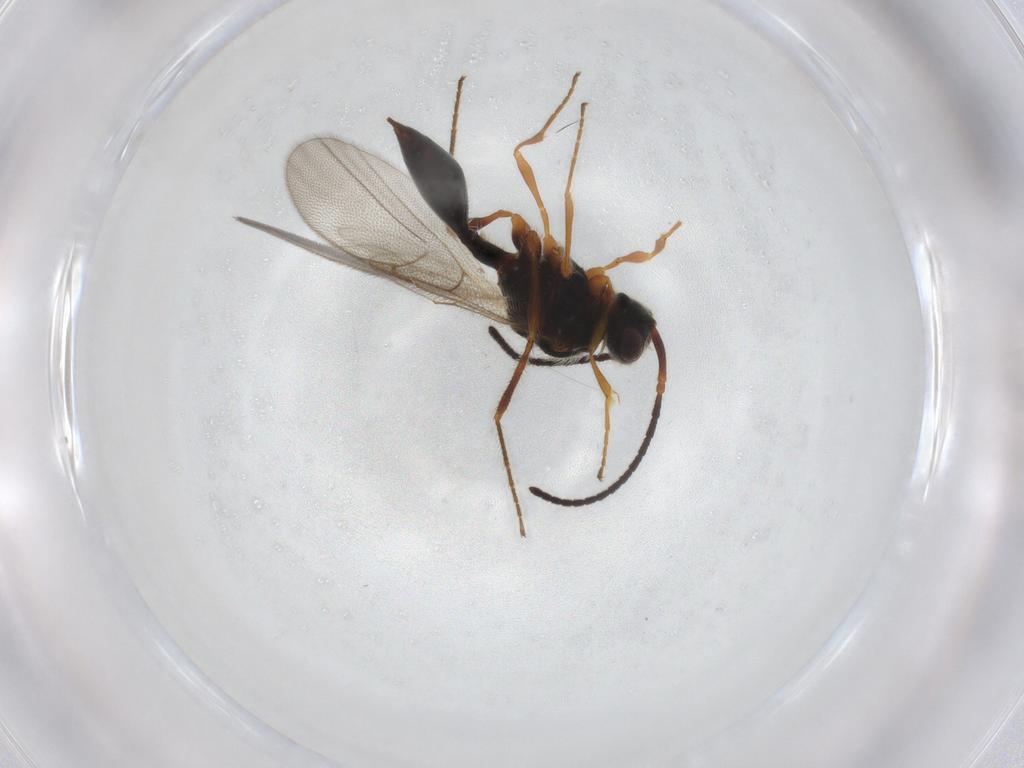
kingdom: Animalia
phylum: Arthropoda
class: Insecta
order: Hymenoptera
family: Diapriidae
